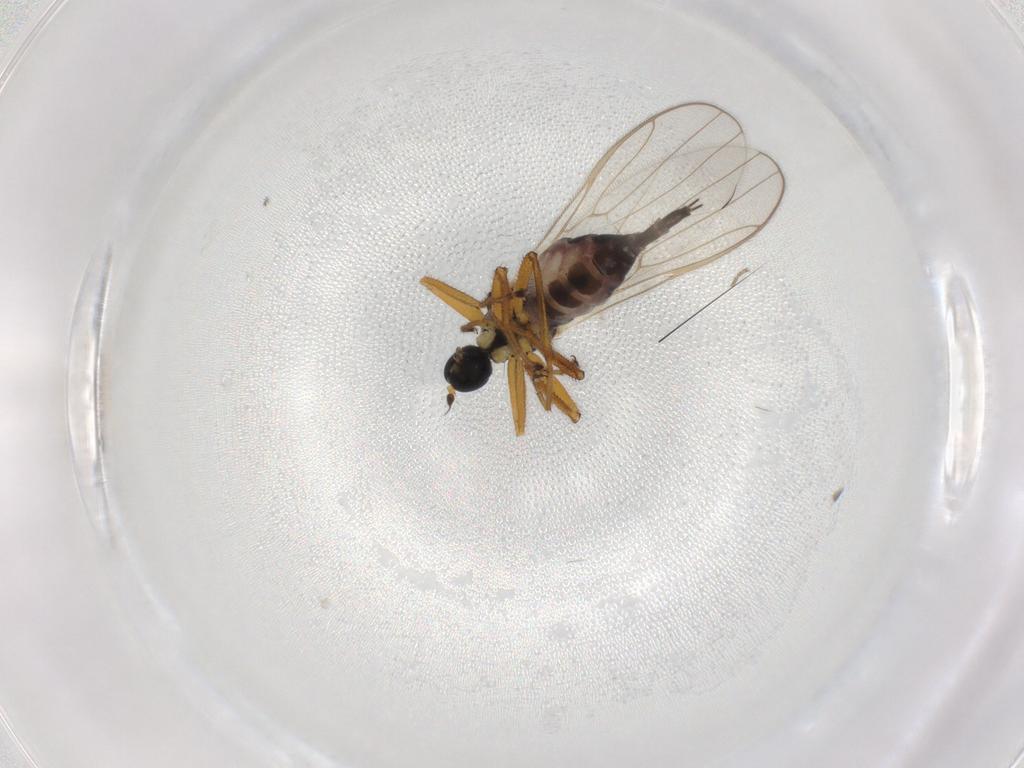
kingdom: Animalia
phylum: Arthropoda
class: Insecta
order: Diptera
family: Hybotidae
